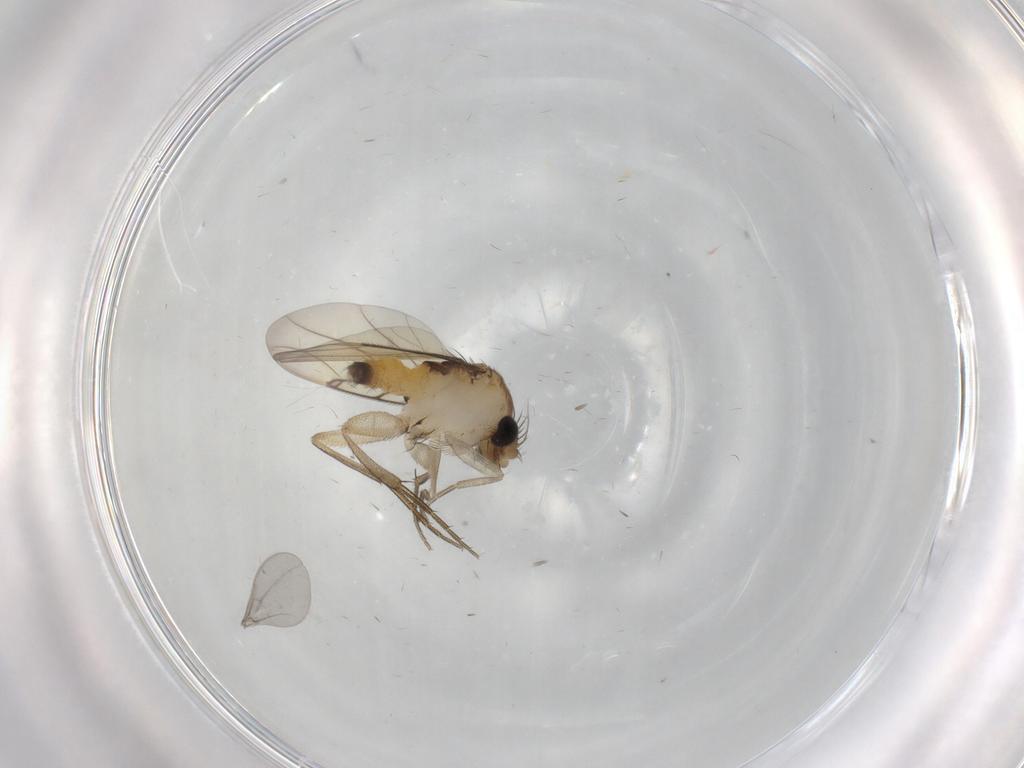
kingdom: Animalia
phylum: Arthropoda
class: Insecta
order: Diptera
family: Cecidomyiidae
